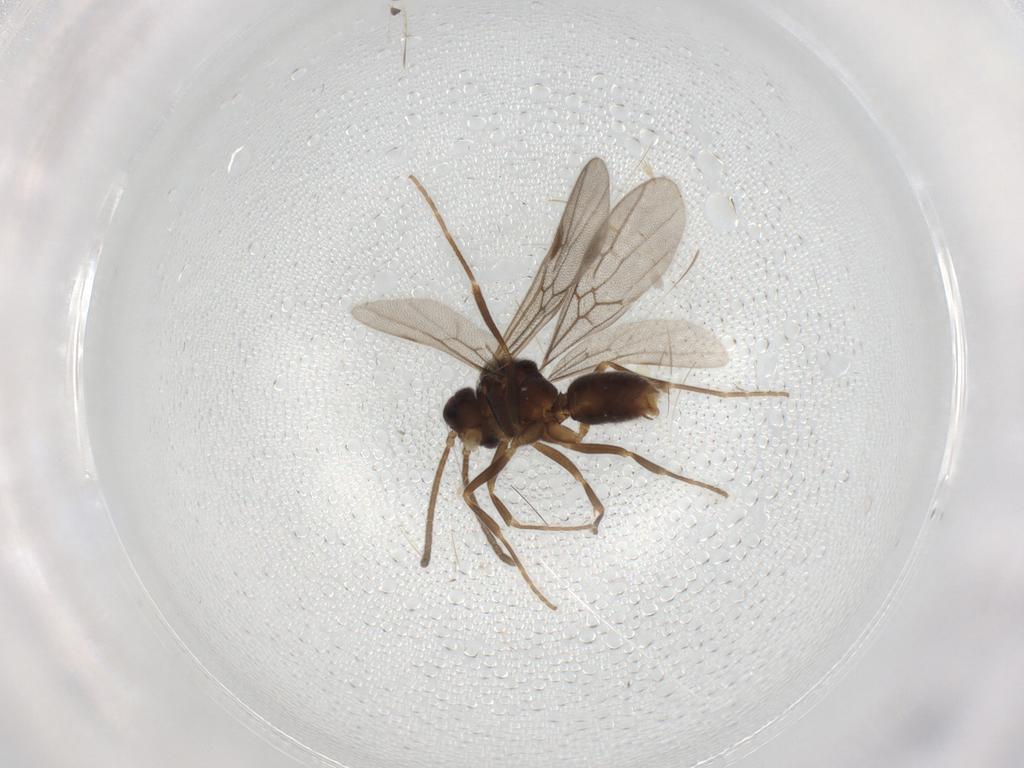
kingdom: Animalia
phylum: Arthropoda
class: Insecta
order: Hymenoptera
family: Formicidae
